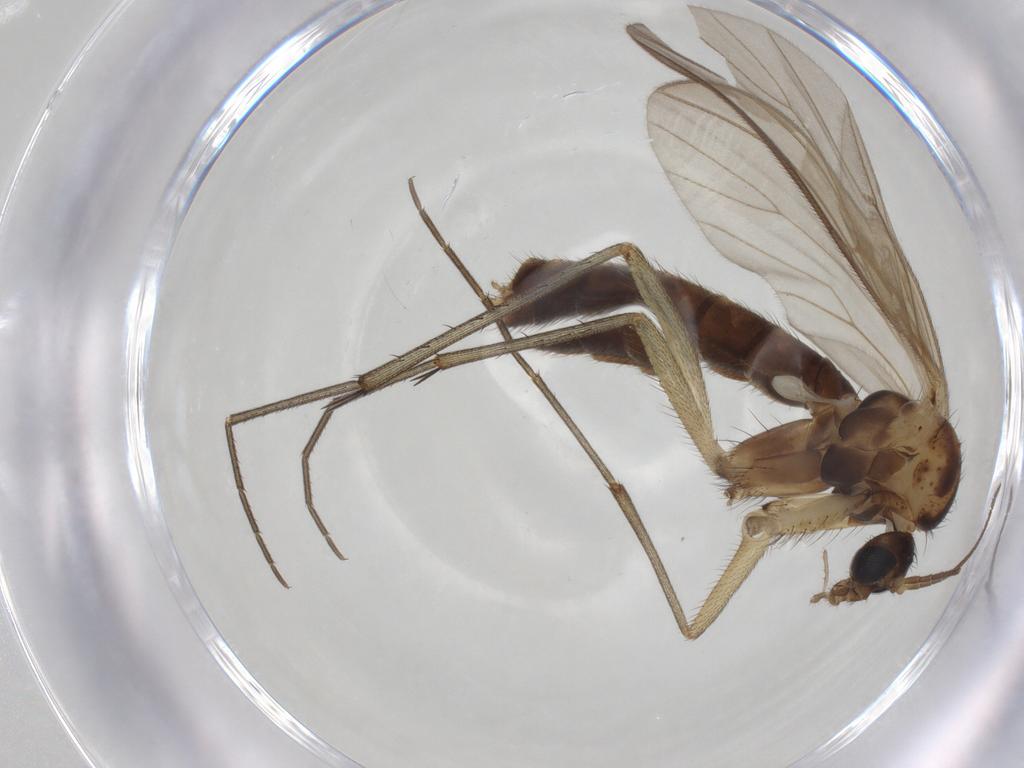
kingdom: Animalia
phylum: Arthropoda
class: Insecta
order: Diptera
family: Mycetophilidae
